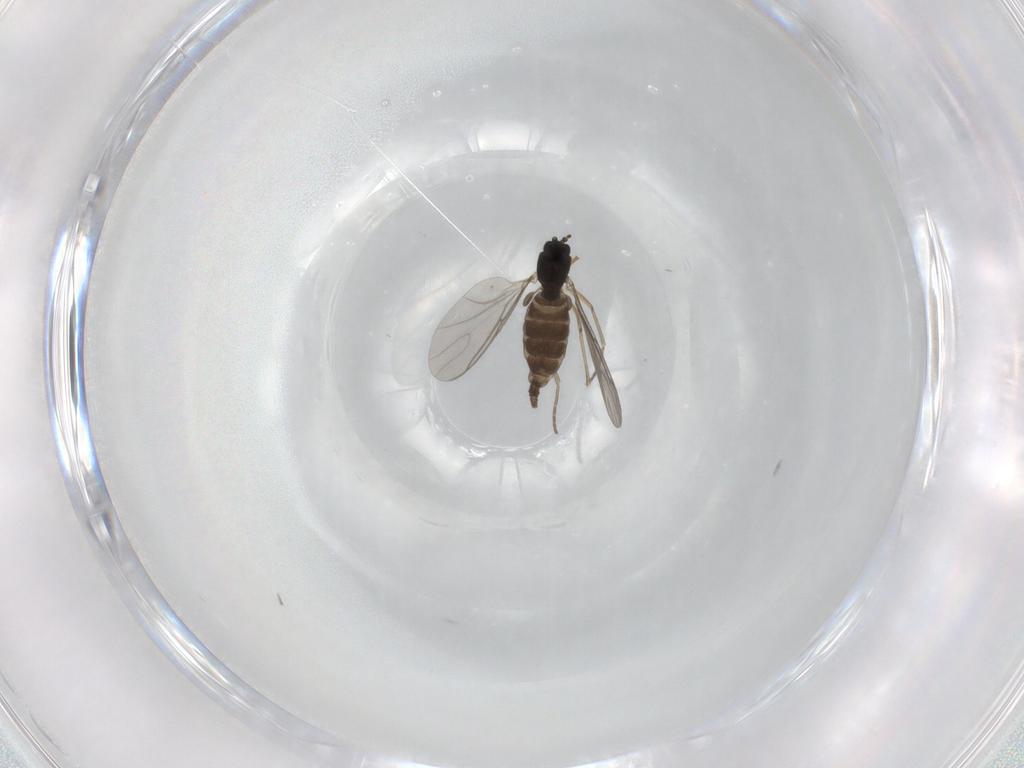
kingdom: Animalia
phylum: Arthropoda
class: Insecta
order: Diptera
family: Sciaridae
